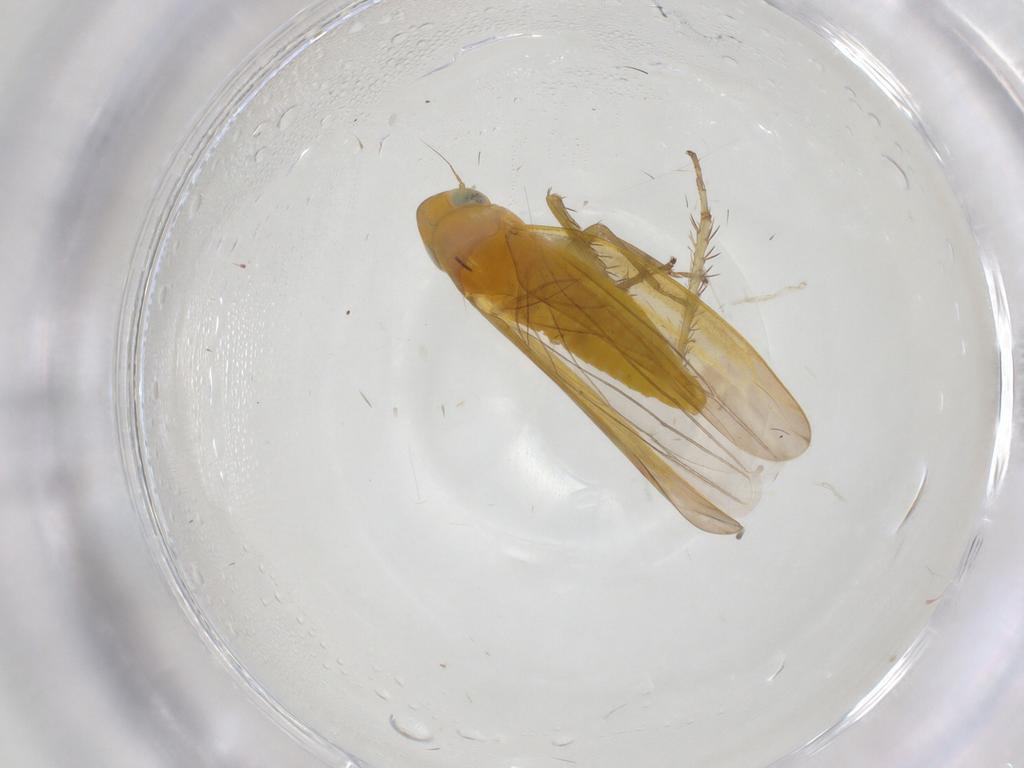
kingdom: Animalia
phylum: Arthropoda
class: Insecta
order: Hemiptera
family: Cicadellidae
